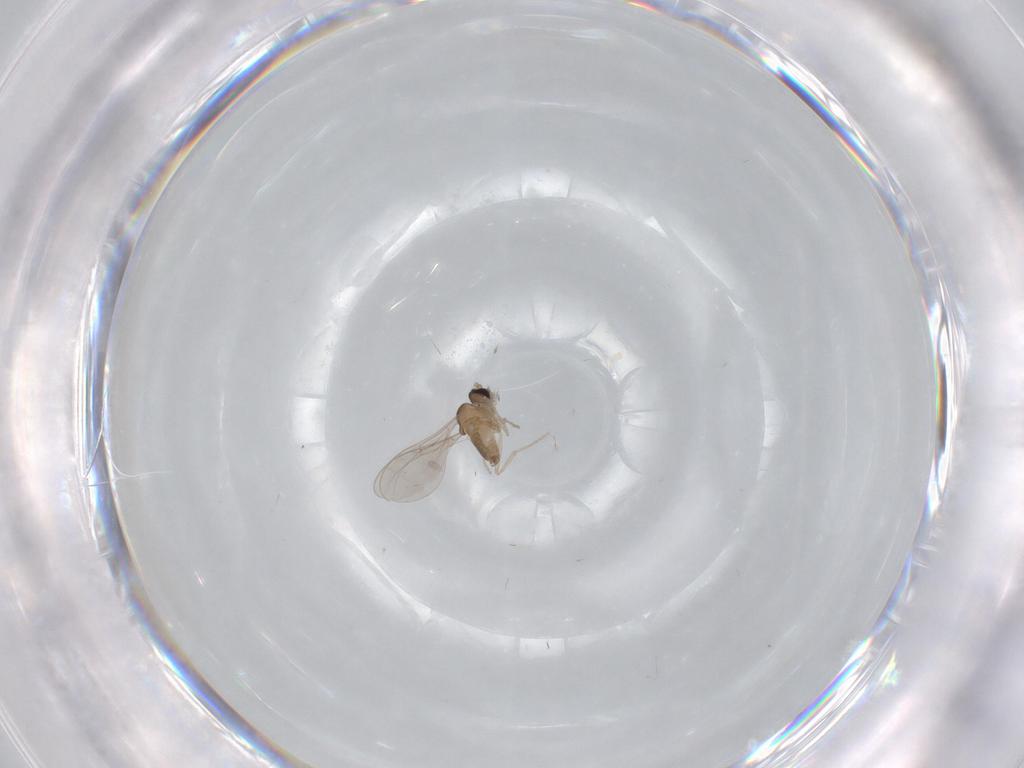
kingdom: Animalia
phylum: Arthropoda
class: Insecta
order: Diptera
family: Cecidomyiidae
